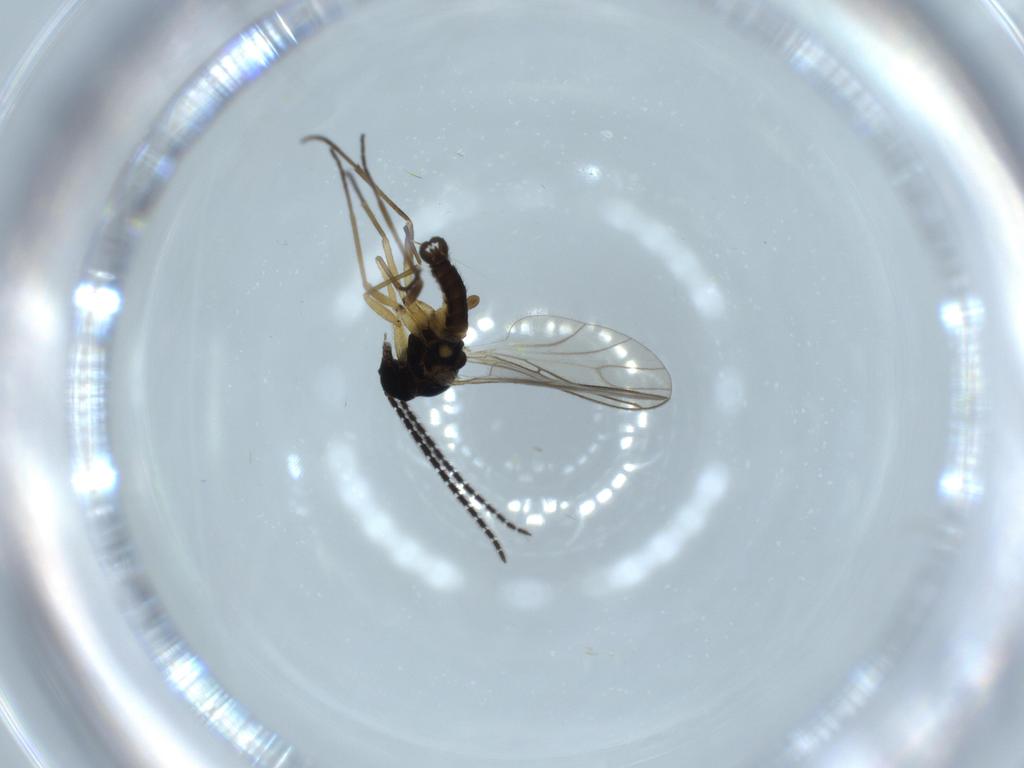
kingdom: Animalia
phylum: Arthropoda
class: Insecta
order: Diptera
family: Sciaridae
